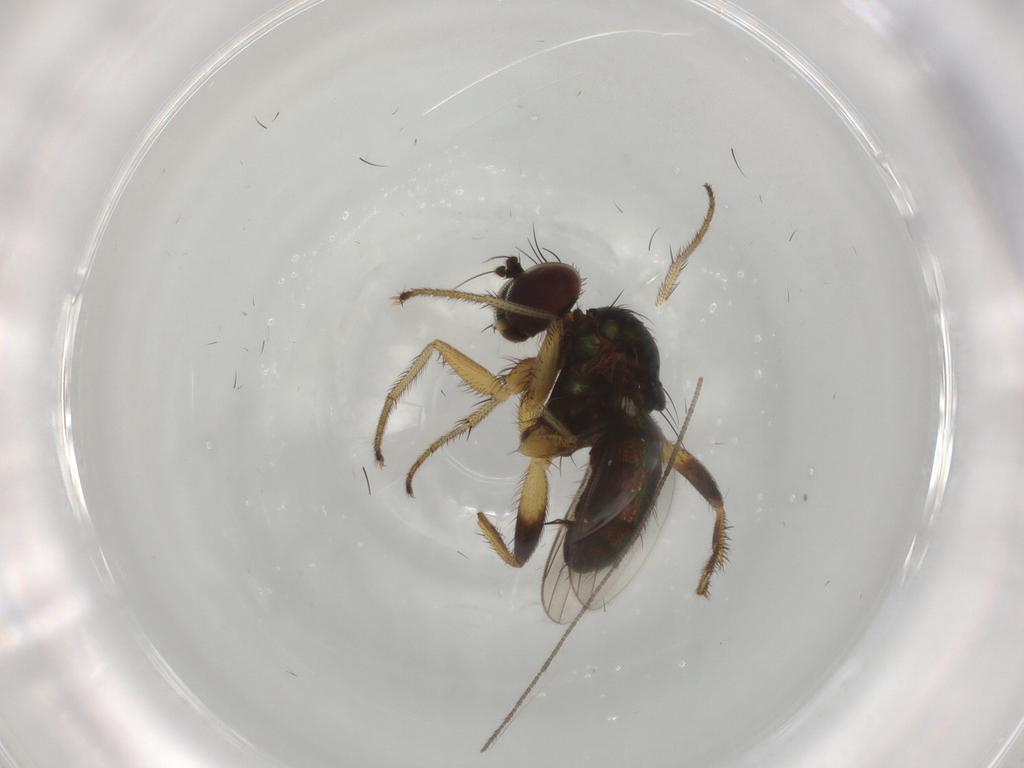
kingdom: Animalia
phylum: Arthropoda
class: Insecta
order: Diptera
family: Dolichopodidae
